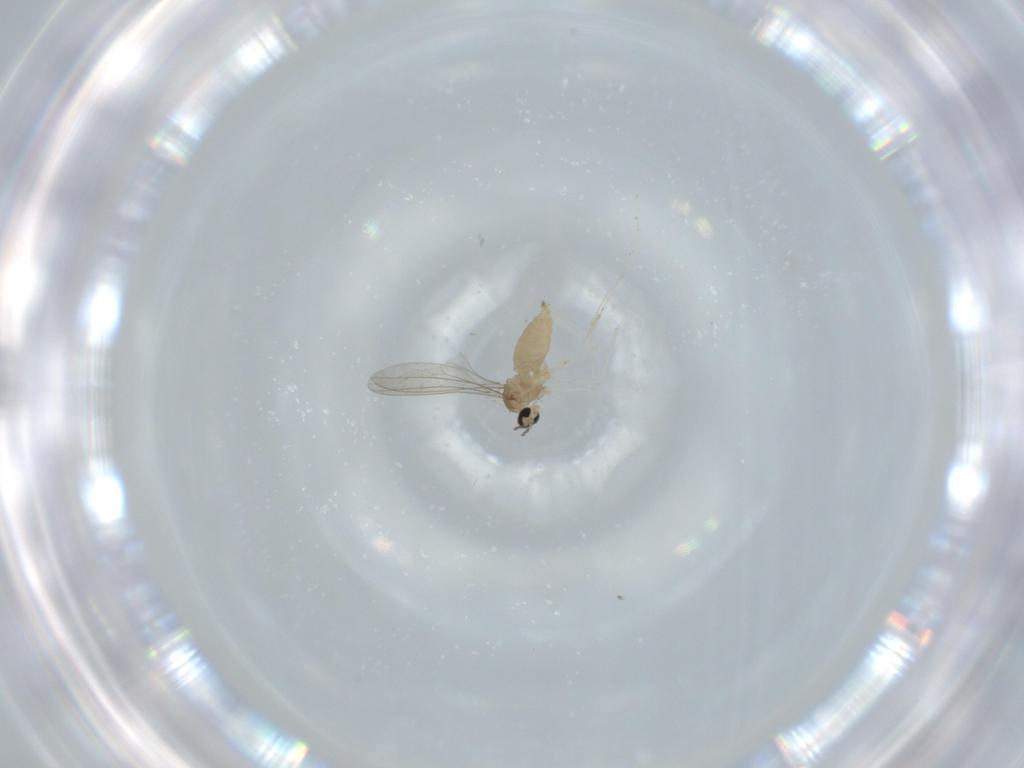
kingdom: Animalia
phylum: Arthropoda
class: Insecta
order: Diptera
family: Cecidomyiidae
